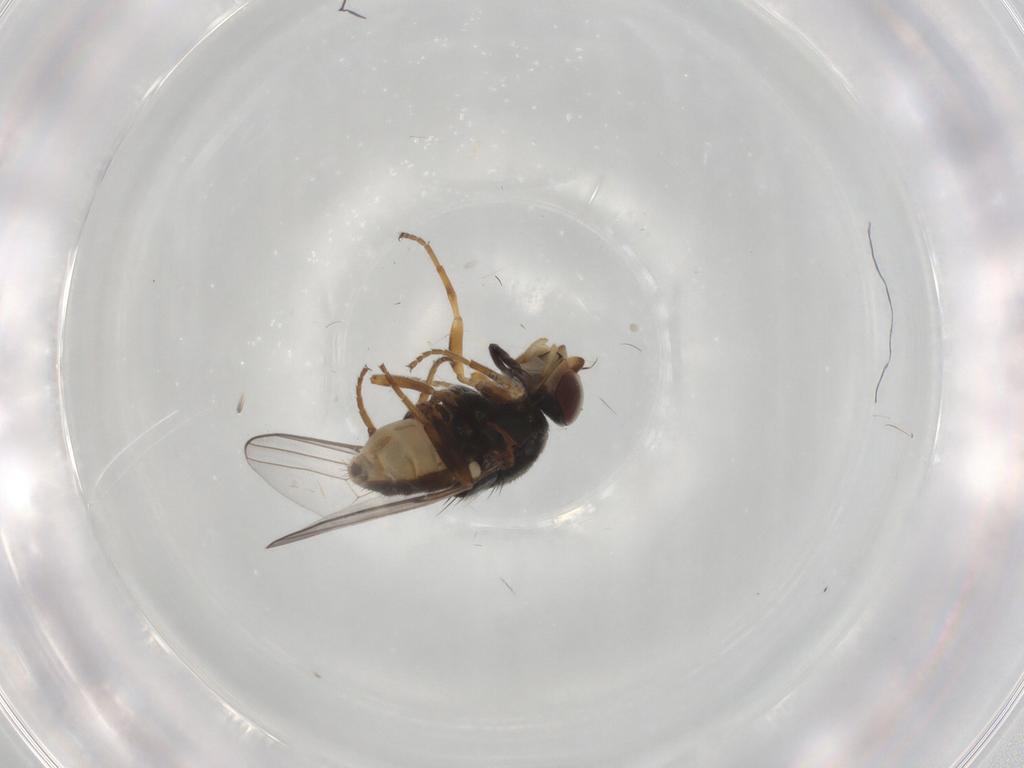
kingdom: Animalia
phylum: Arthropoda
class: Insecta
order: Diptera
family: Chloropidae
